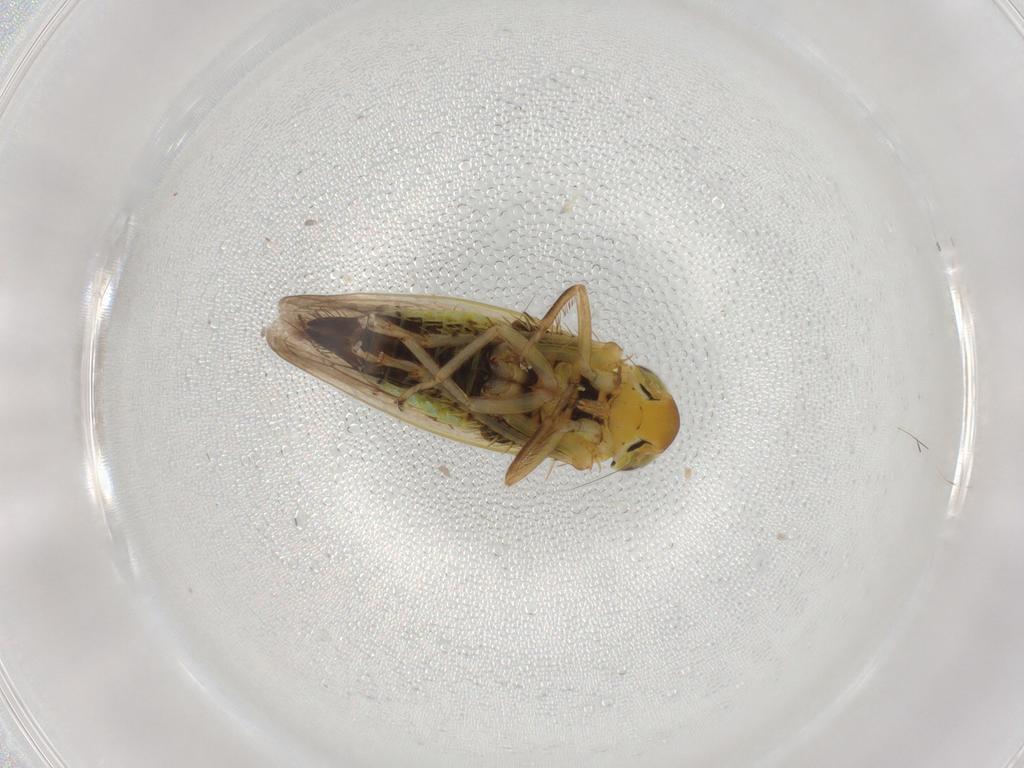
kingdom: Animalia
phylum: Arthropoda
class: Insecta
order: Hemiptera
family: Cicadellidae
